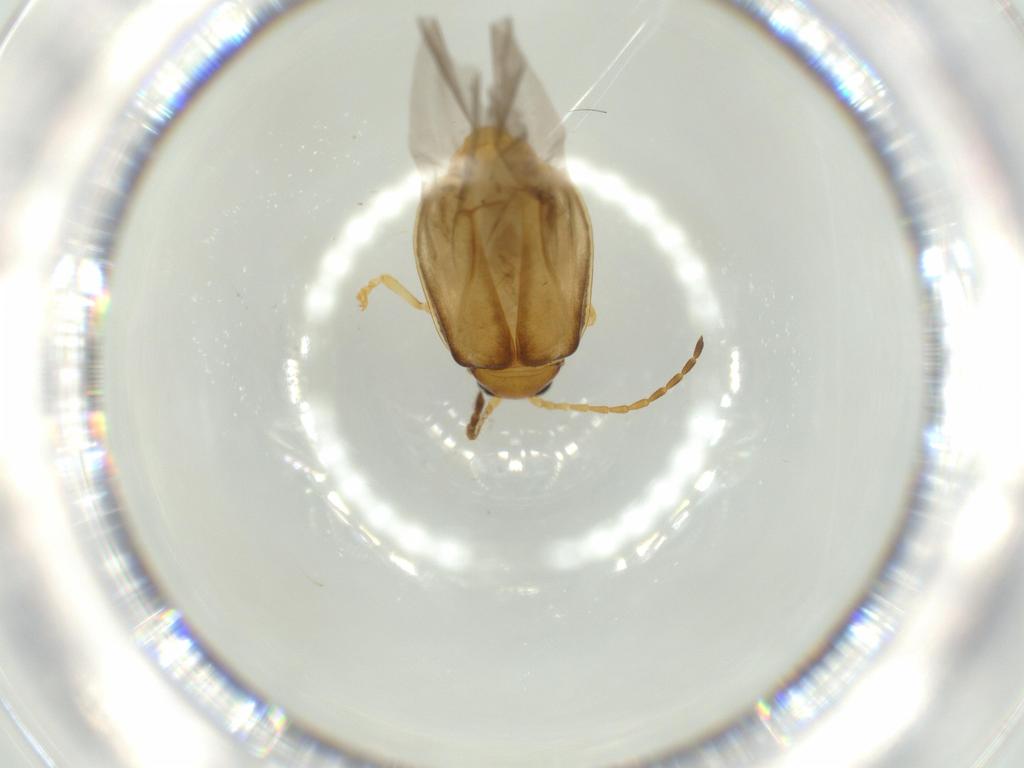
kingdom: Animalia
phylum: Arthropoda
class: Insecta
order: Coleoptera
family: Chrysomelidae
